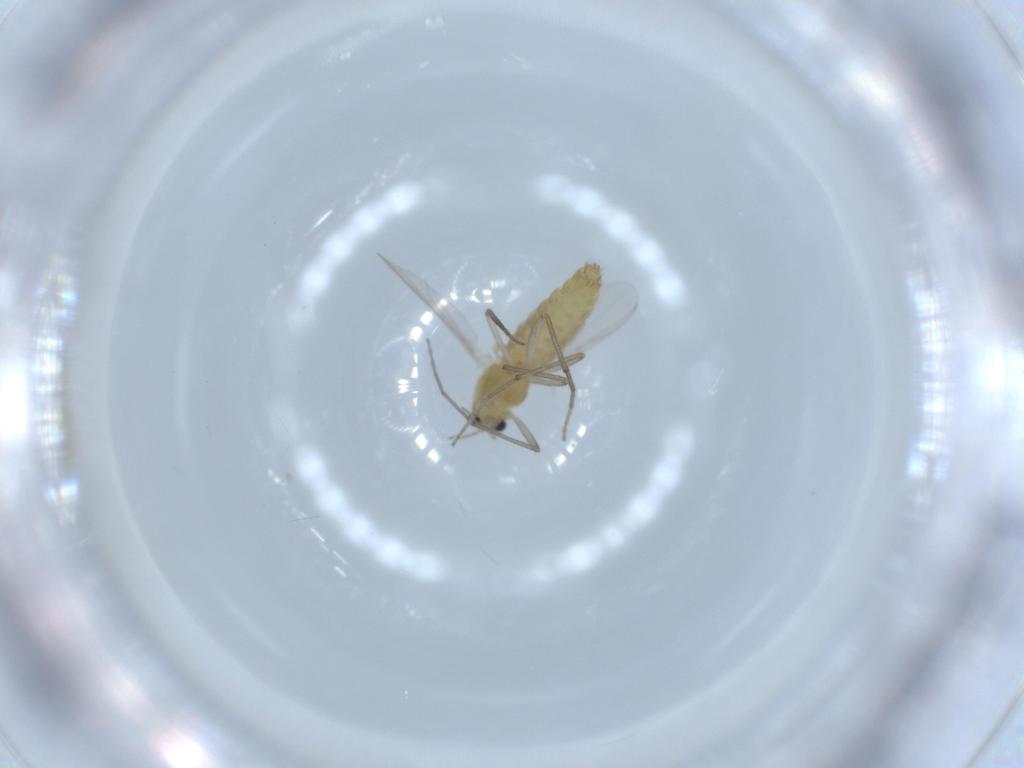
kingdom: Animalia
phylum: Arthropoda
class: Insecta
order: Diptera
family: Chironomidae
